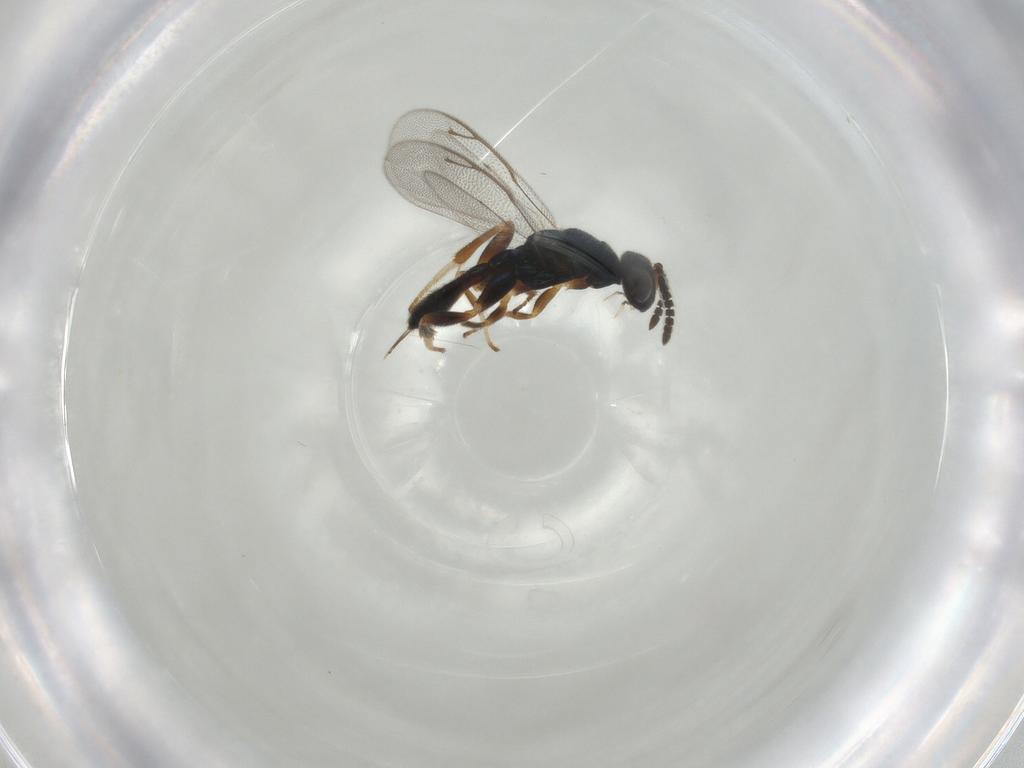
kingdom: Animalia
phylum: Arthropoda
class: Insecta
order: Hymenoptera
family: Cleonyminae
